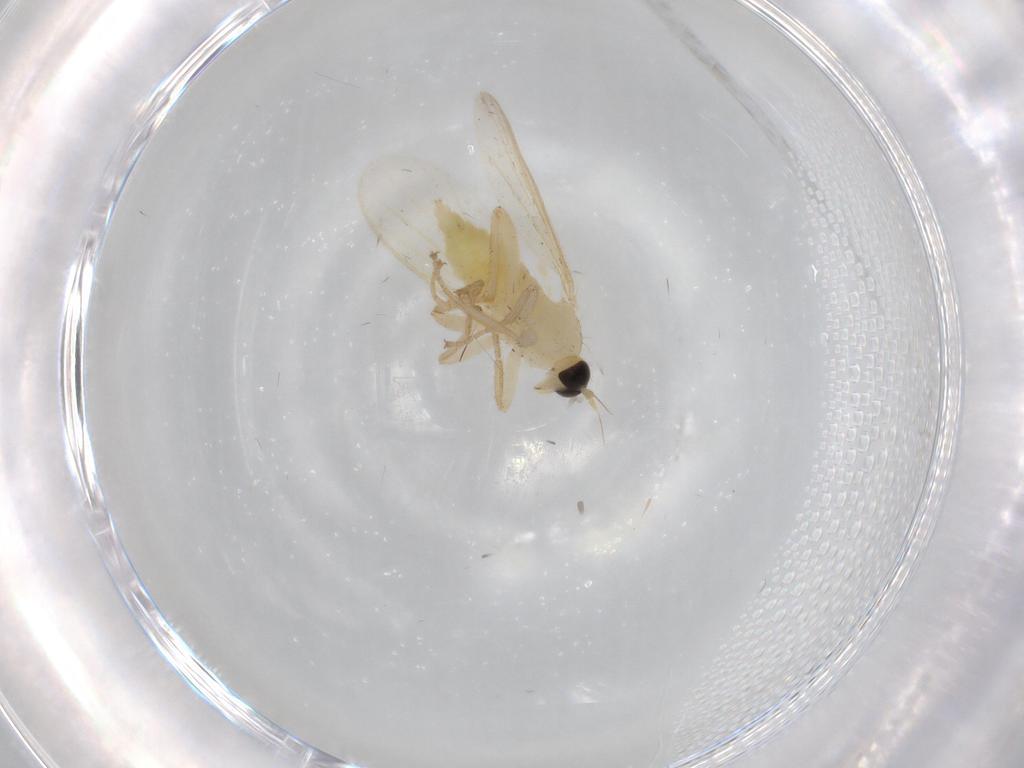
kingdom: Animalia
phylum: Arthropoda
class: Insecta
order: Diptera
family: Hybotidae
